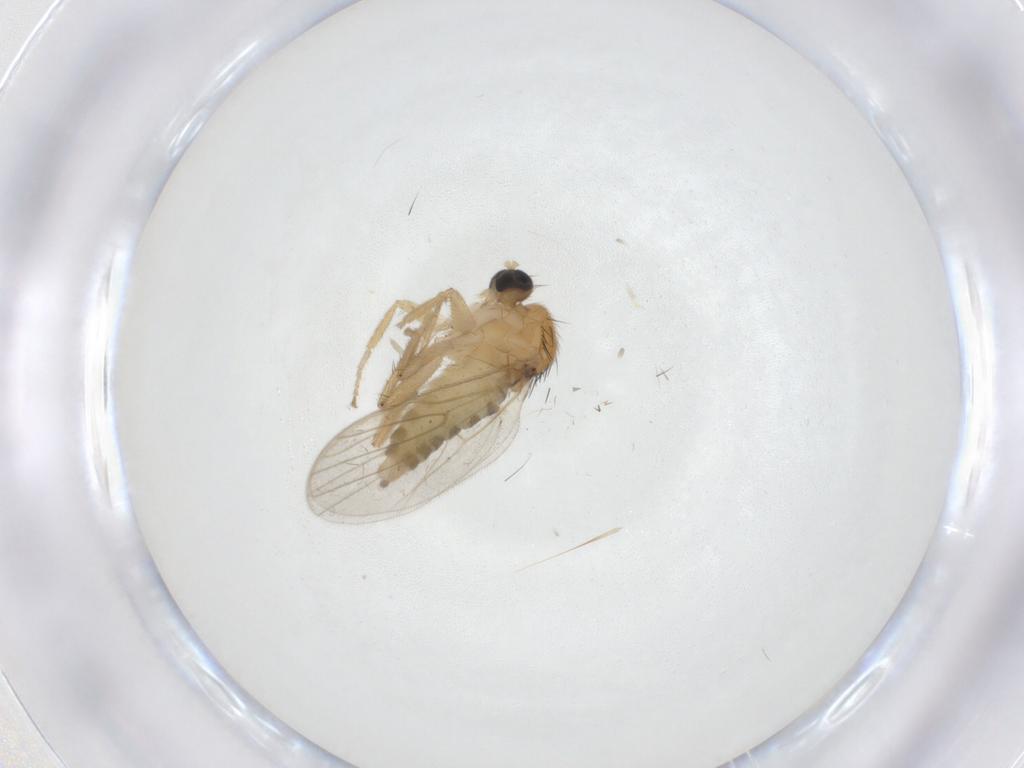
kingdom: Animalia
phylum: Arthropoda
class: Insecta
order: Diptera
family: Hybotidae
